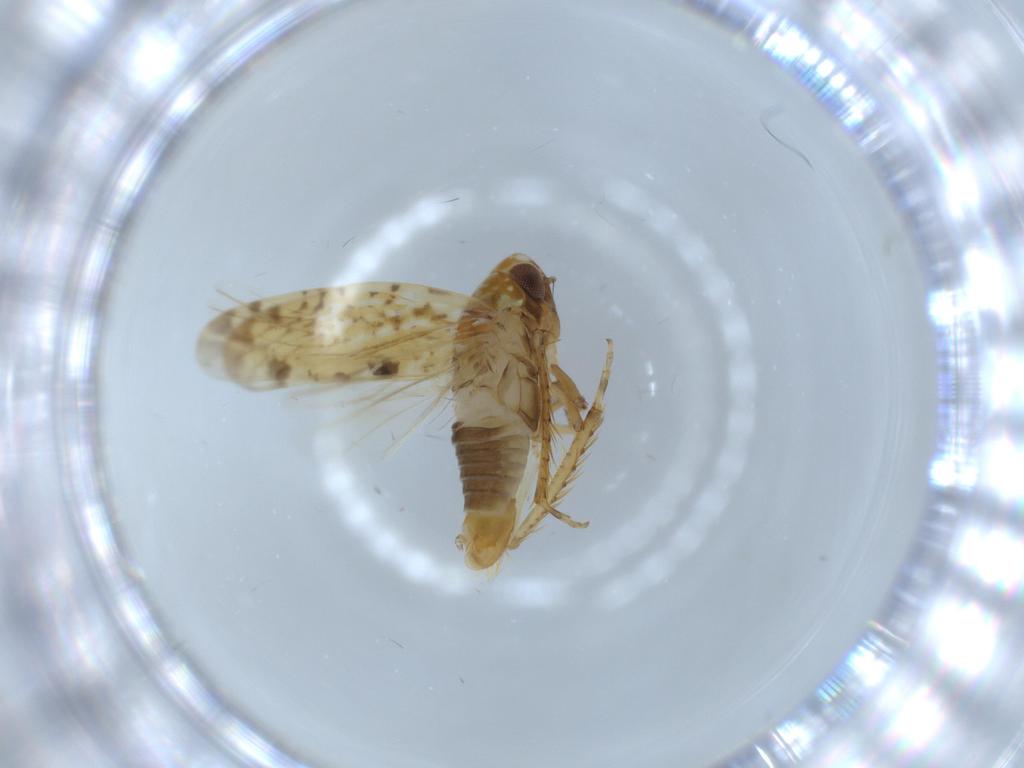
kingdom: Animalia
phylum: Arthropoda
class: Insecta
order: Hemiptera
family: Cicadellidae
